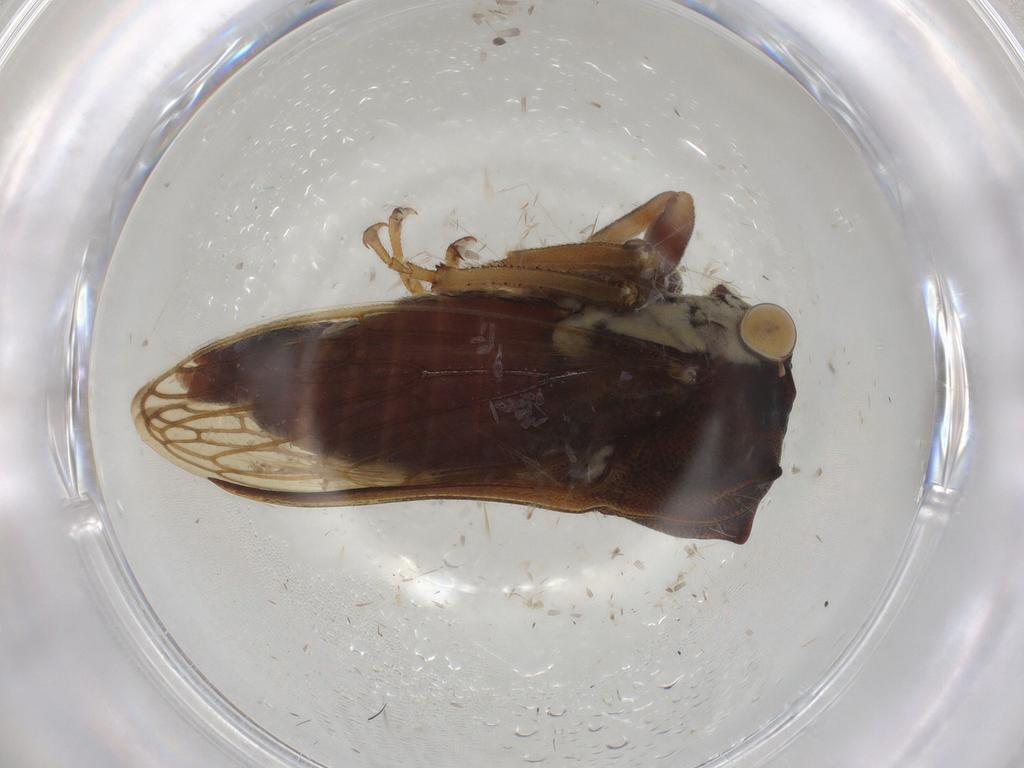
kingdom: Animalia
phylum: Arthropoda
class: Insecta
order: Hemiptera
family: Membracidae
